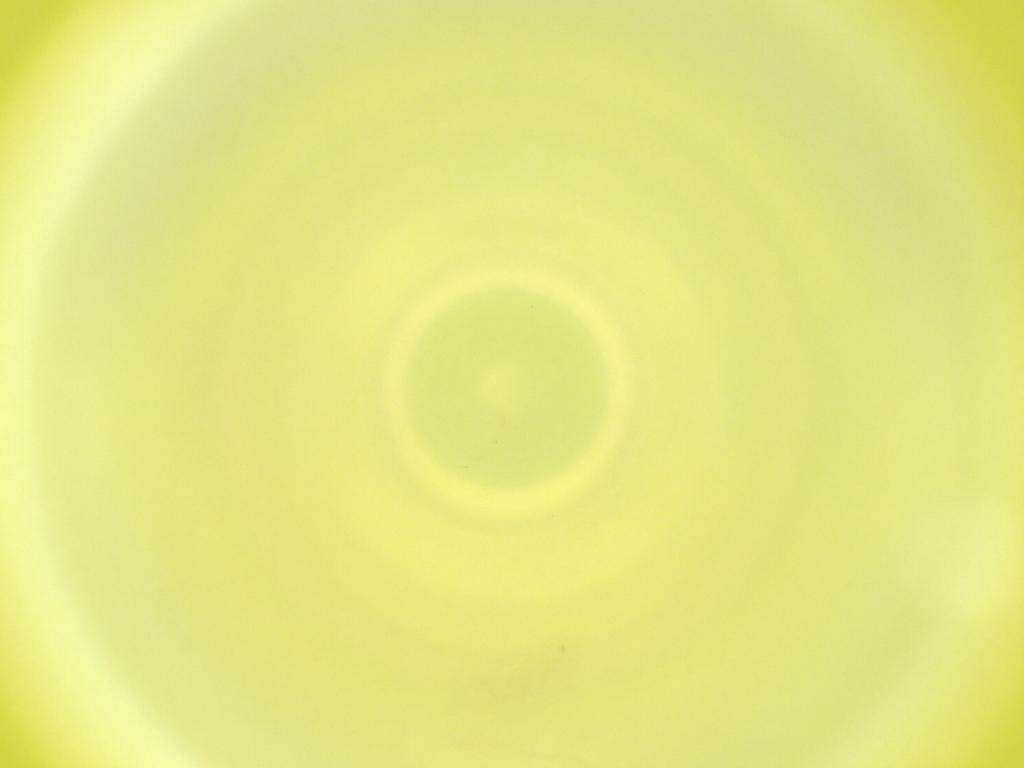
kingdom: Animalia
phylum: Arthropoda
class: Insecta
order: Diptera
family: Cecidomyiidae
